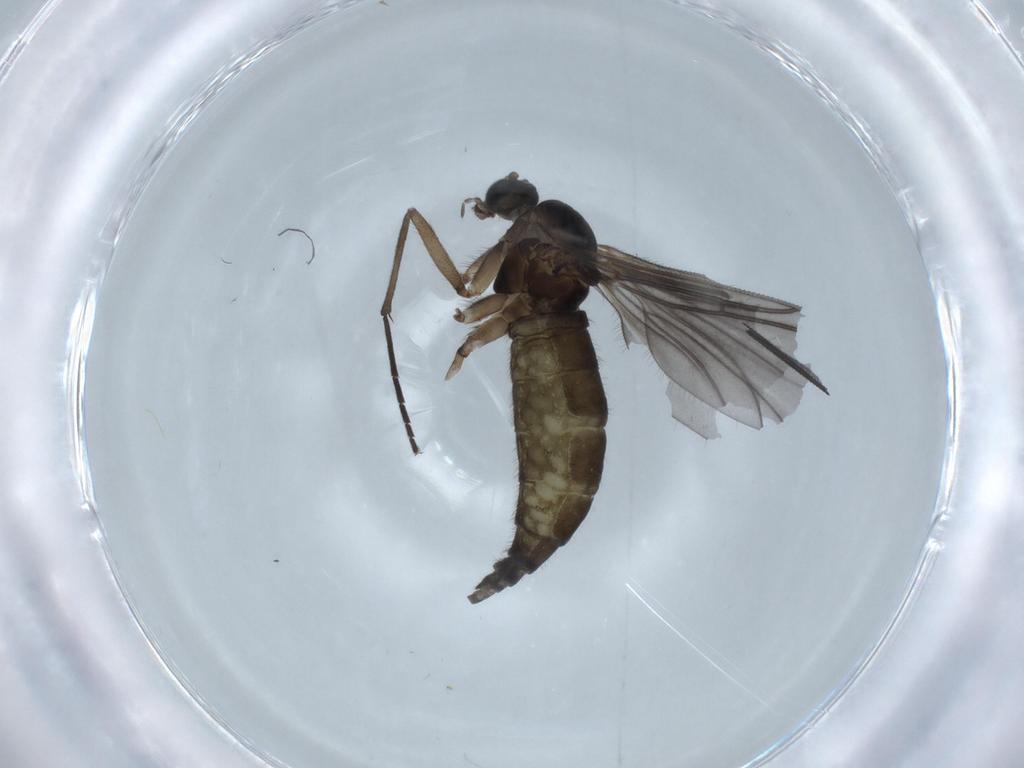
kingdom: Animalia
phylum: Arthropoda
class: Insecta
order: Diptera
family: Sciaridae
